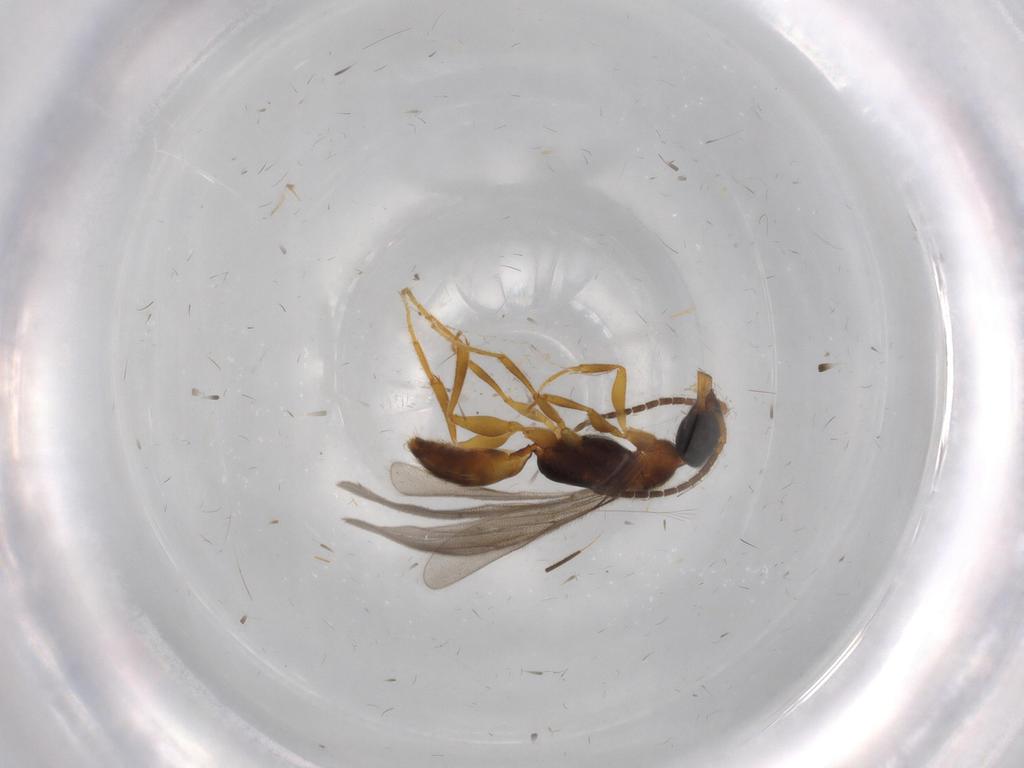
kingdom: Animalia
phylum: Arthropoda
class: Insecta
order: Hymenoptera
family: Bethylidae
